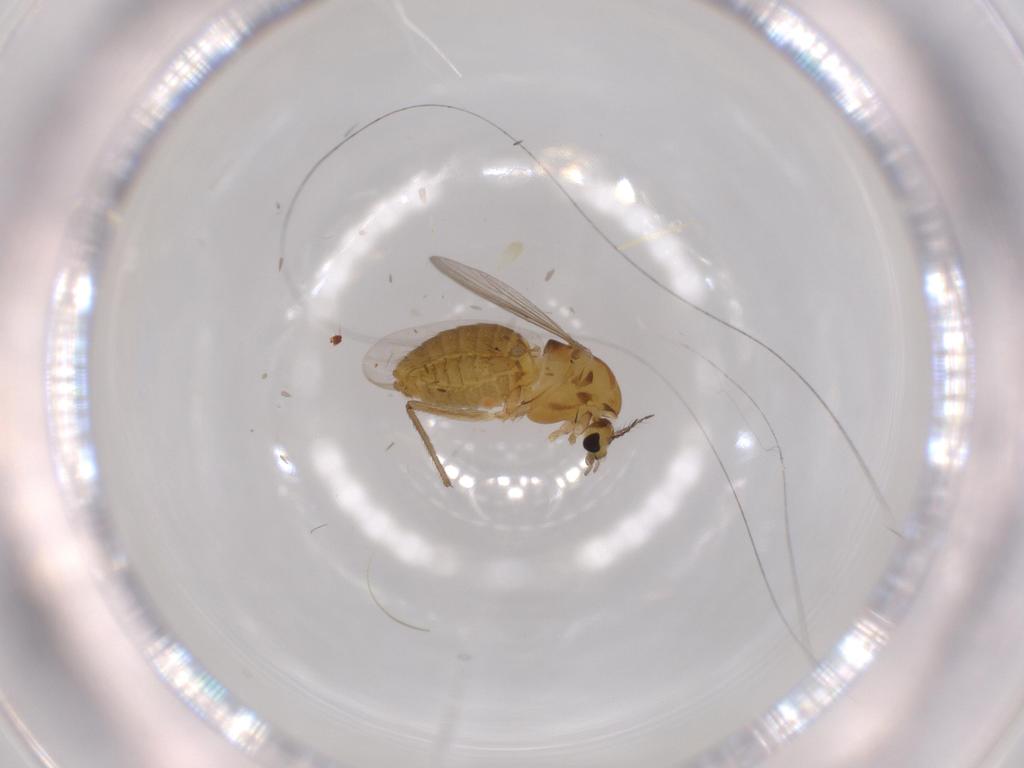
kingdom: Animalia
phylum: Arthropoda
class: Insecta
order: Diptera
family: Chironomidae
